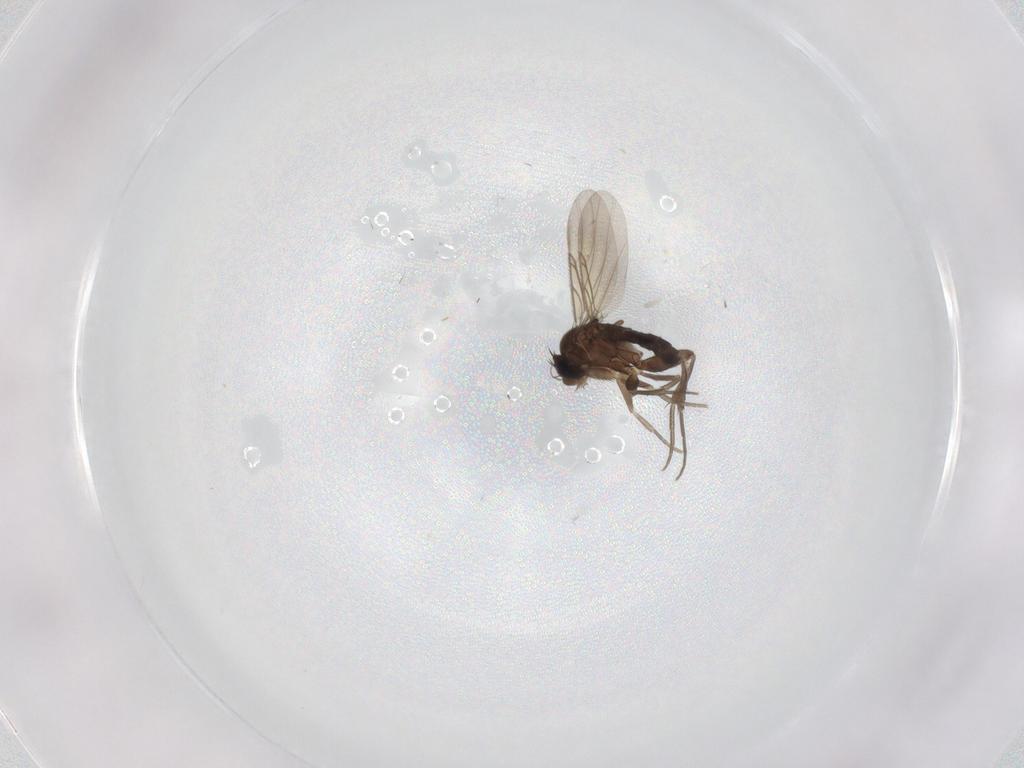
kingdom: Animalia
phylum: Arthropoda
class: Insecta
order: Diptera
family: Phoridae
